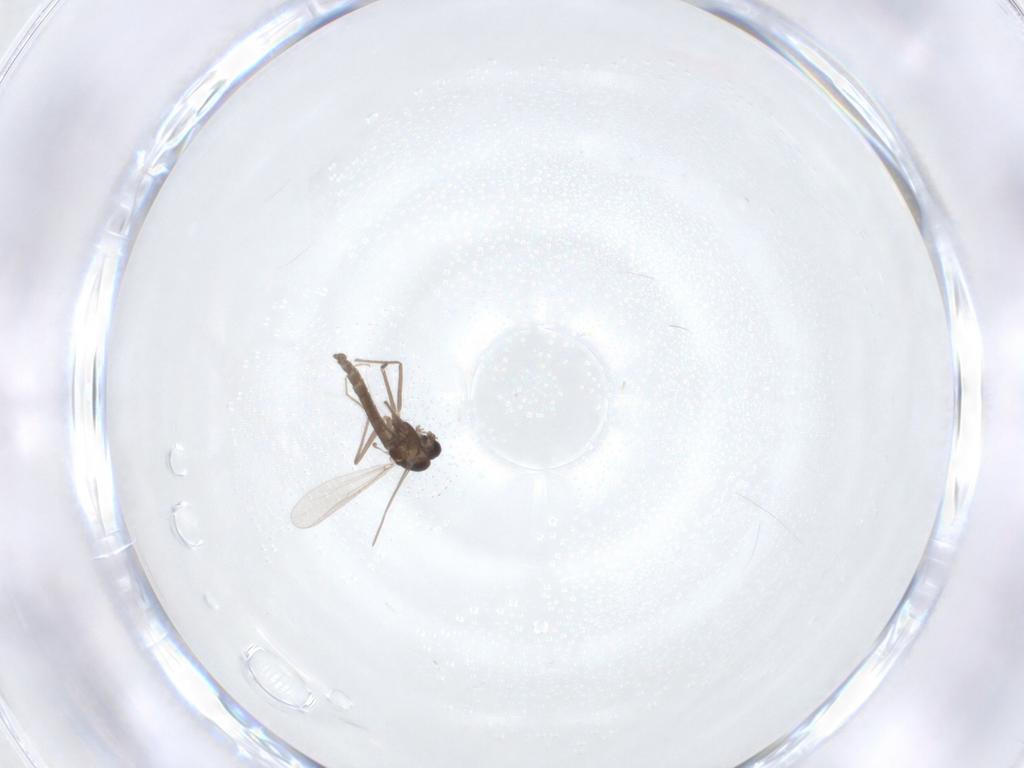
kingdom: Animalia
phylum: Arthropoda
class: Insecta
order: Diptera
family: Chironomidae
